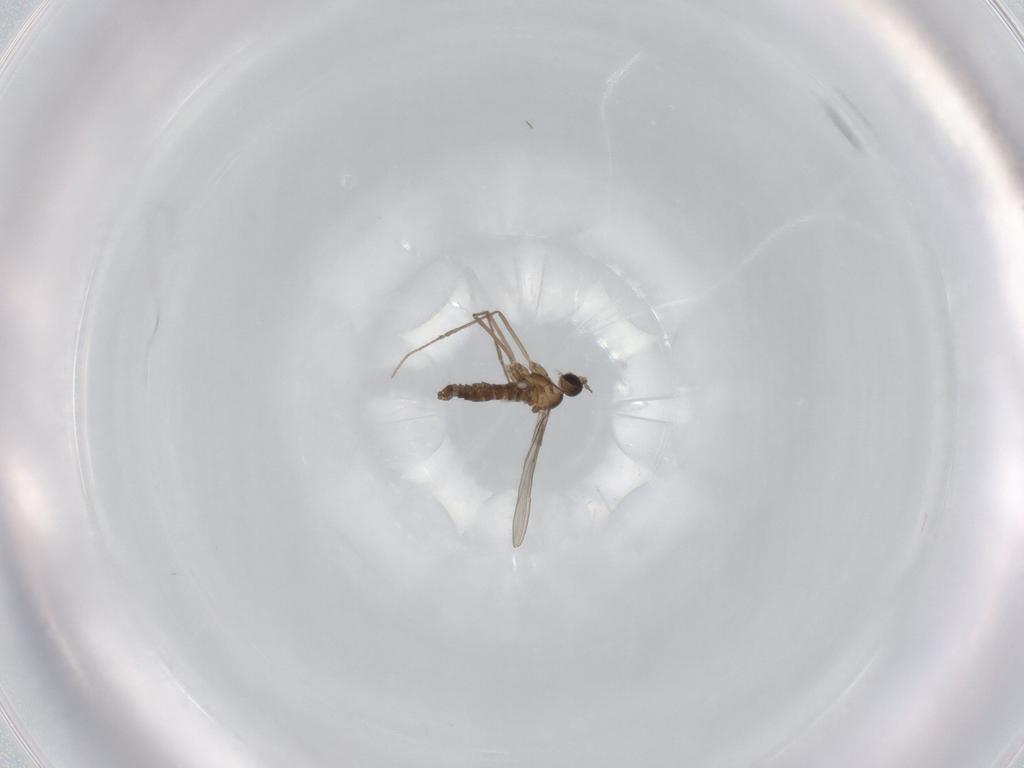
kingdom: Animalia
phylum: Arthropoda
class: Insecta
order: Diptera
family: Cecidomyiidae
